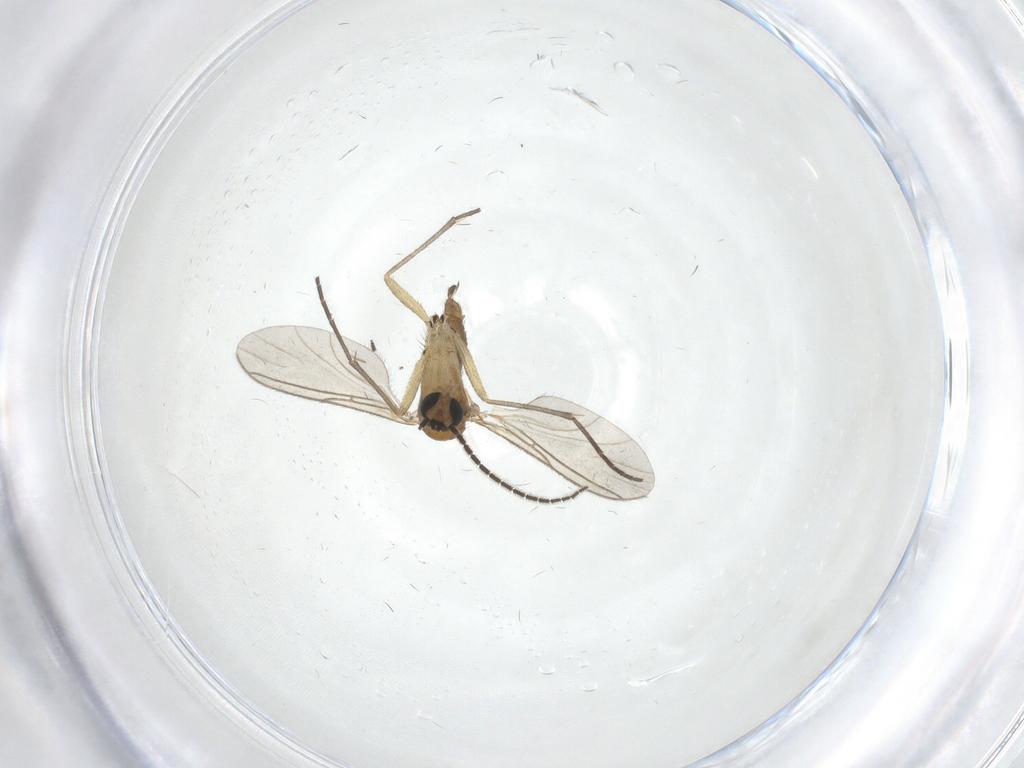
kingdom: Animalia
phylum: Arthropoda
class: Insecta
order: Diptera
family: Sciaridae
